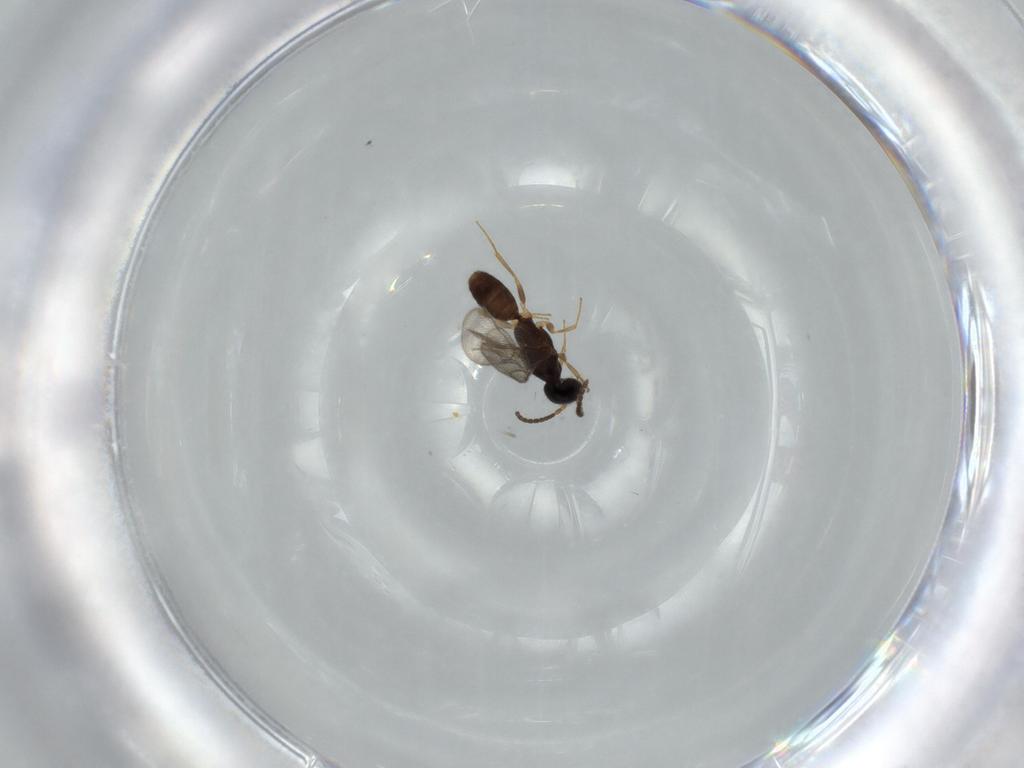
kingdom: Animalia
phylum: Arthropoda
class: Insecta
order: Hymenoptera
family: Bethylidae
